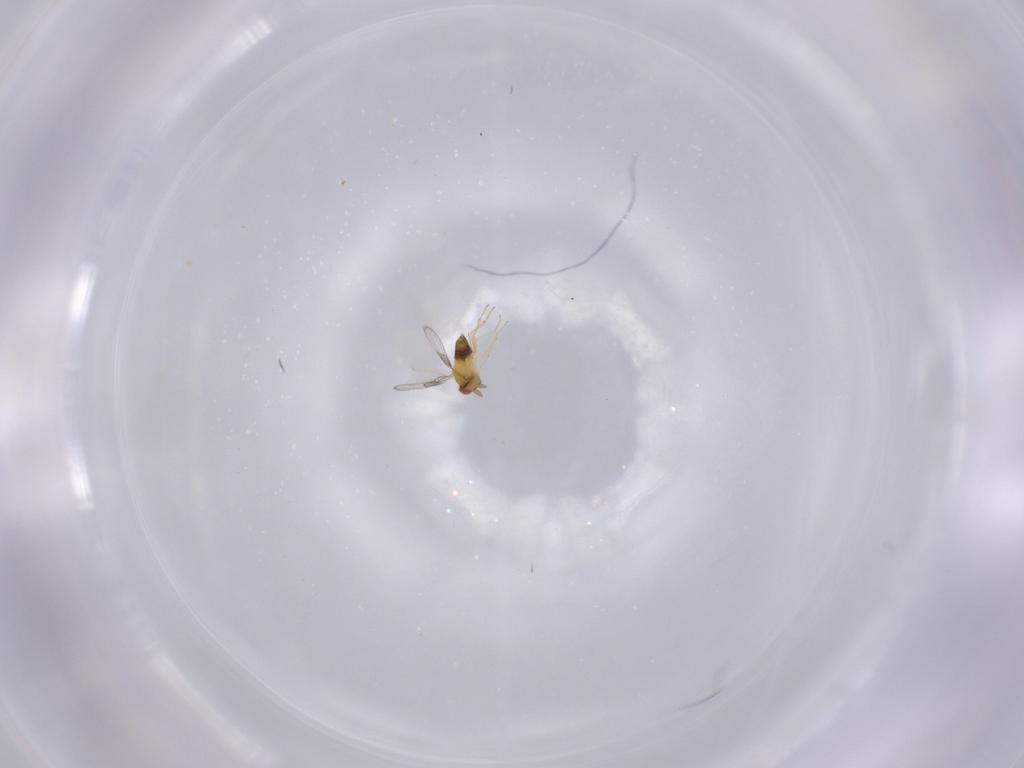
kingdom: Animalia
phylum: Arthropoda
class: Insecta
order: Hymenoptera
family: Trichogrammatidae
